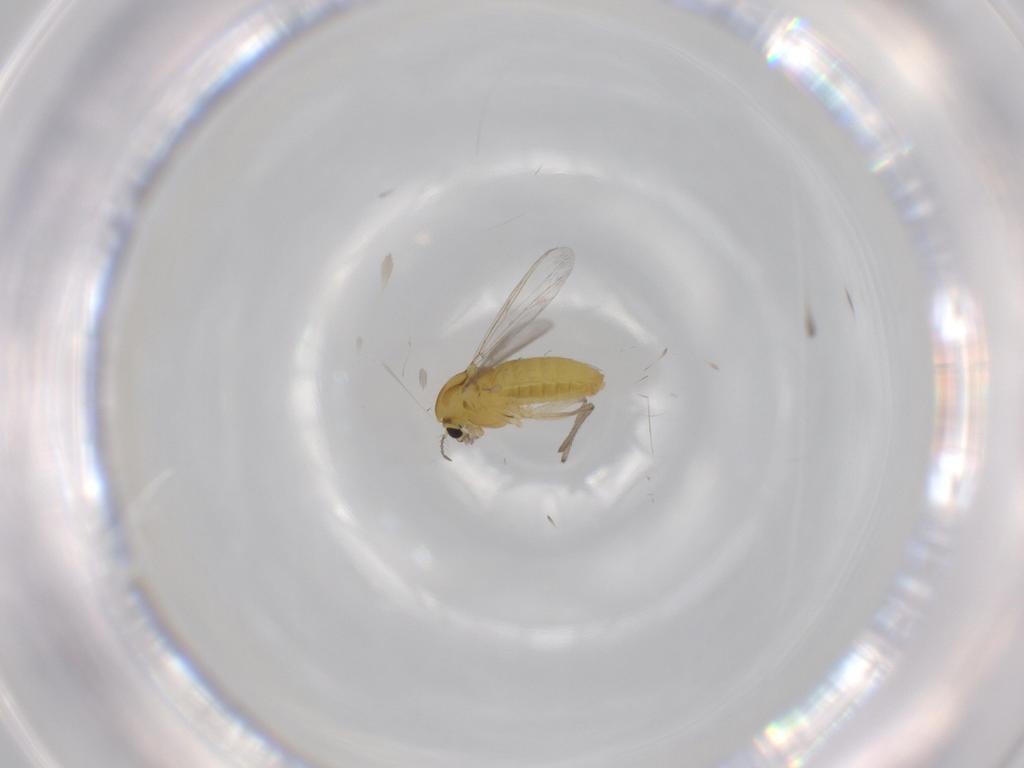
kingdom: Animalia
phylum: Arthropoda
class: Insecta
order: Diptera
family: Chironomidae
